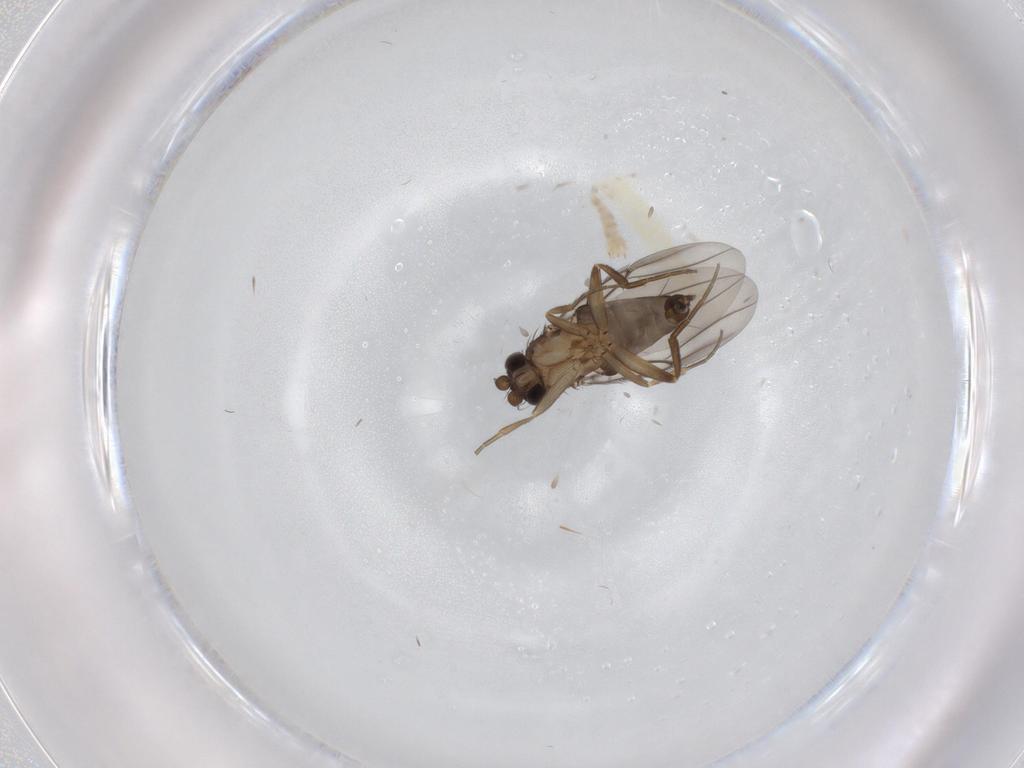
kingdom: Animalia
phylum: Arthropoda
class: Insecta
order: Diptera
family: Phoridae
